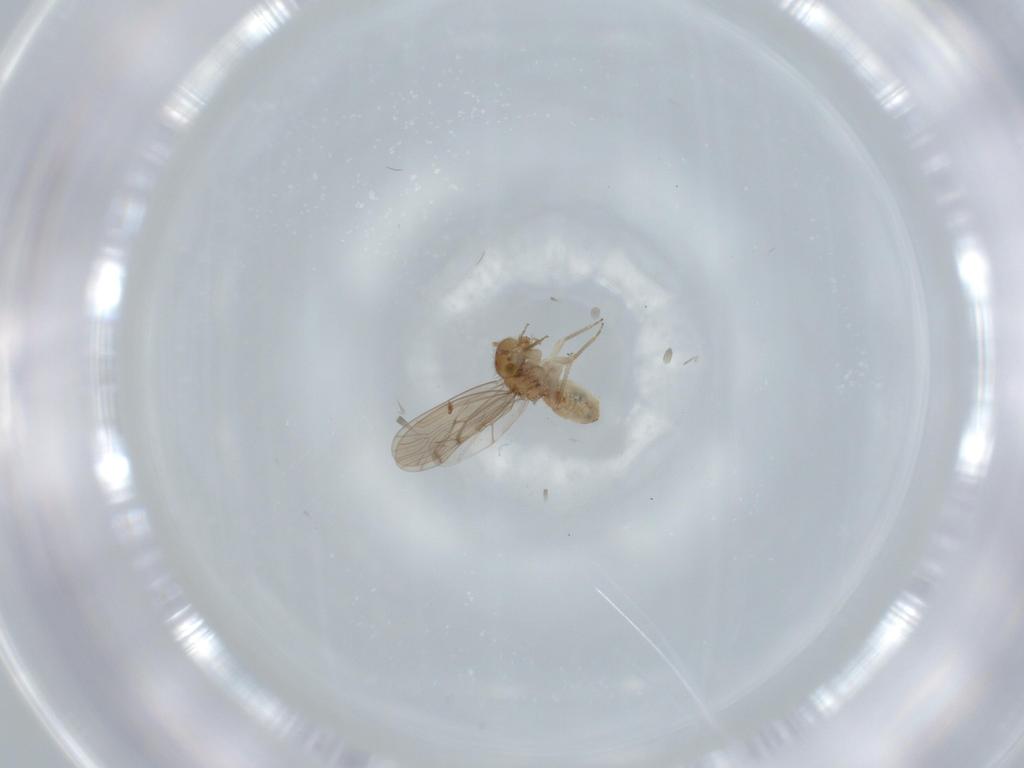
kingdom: Animalia
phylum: Arthropoda
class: Insecta
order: Psocodea
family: Ectopsocidae
